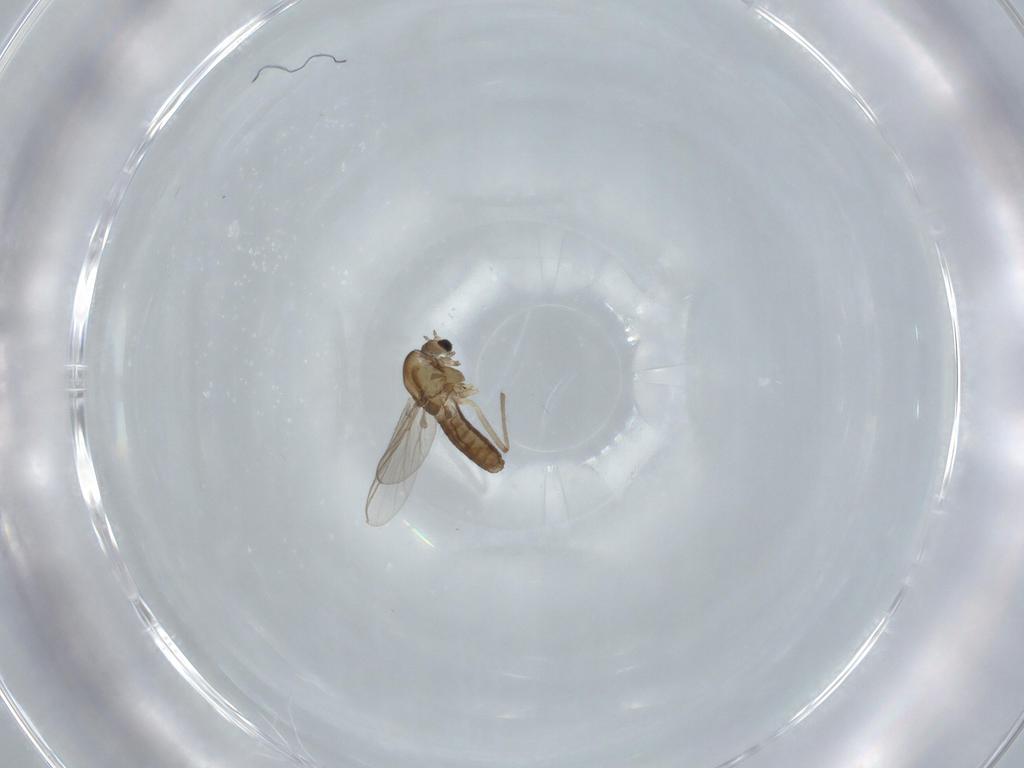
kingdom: Animalia
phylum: Arthropoda
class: Insecta
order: Diptera
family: Chironomidae
